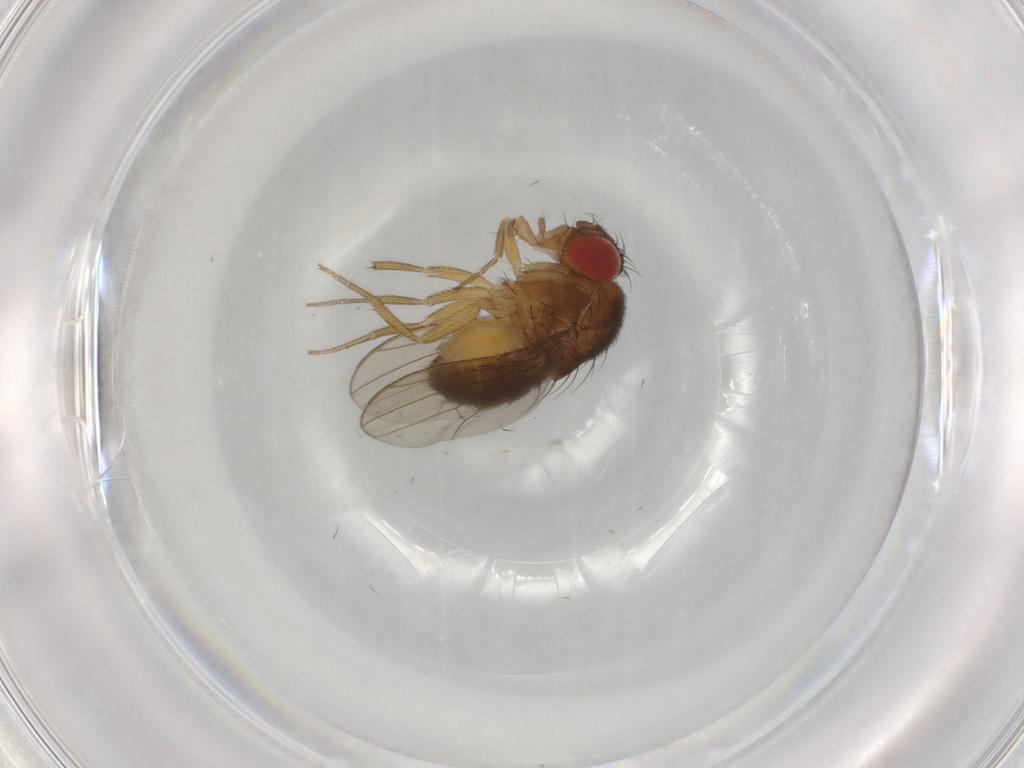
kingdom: Animalia
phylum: Arthropoda
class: Insecta
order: Diptera
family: Drosophilidae
